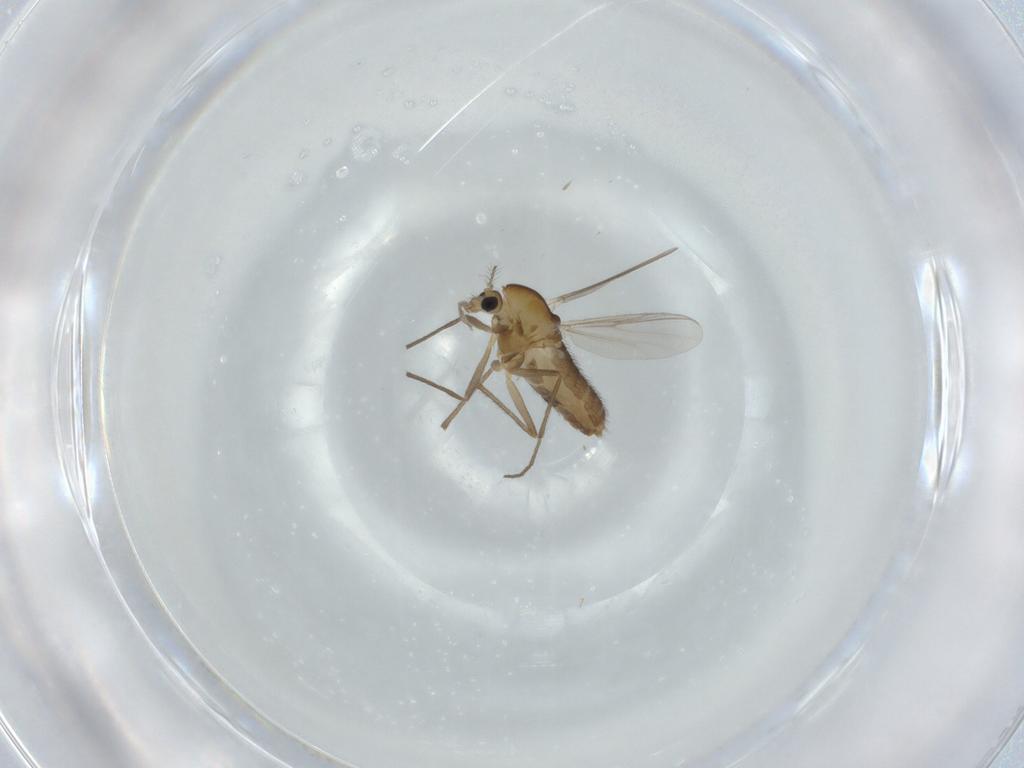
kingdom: Animalia
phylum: Arthropoda
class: Insecta
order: Diptera
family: Chironomidae
